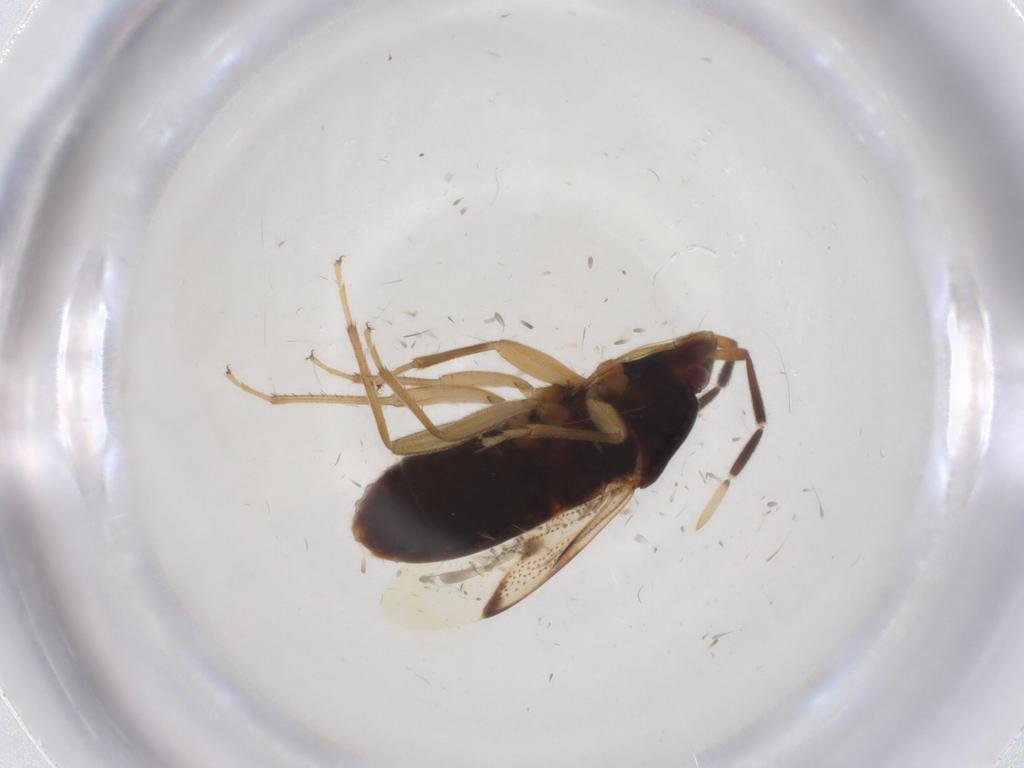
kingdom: Animalia
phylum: Arthropoda
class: Insecta
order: Hemiptera
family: Rhyparochromidae
